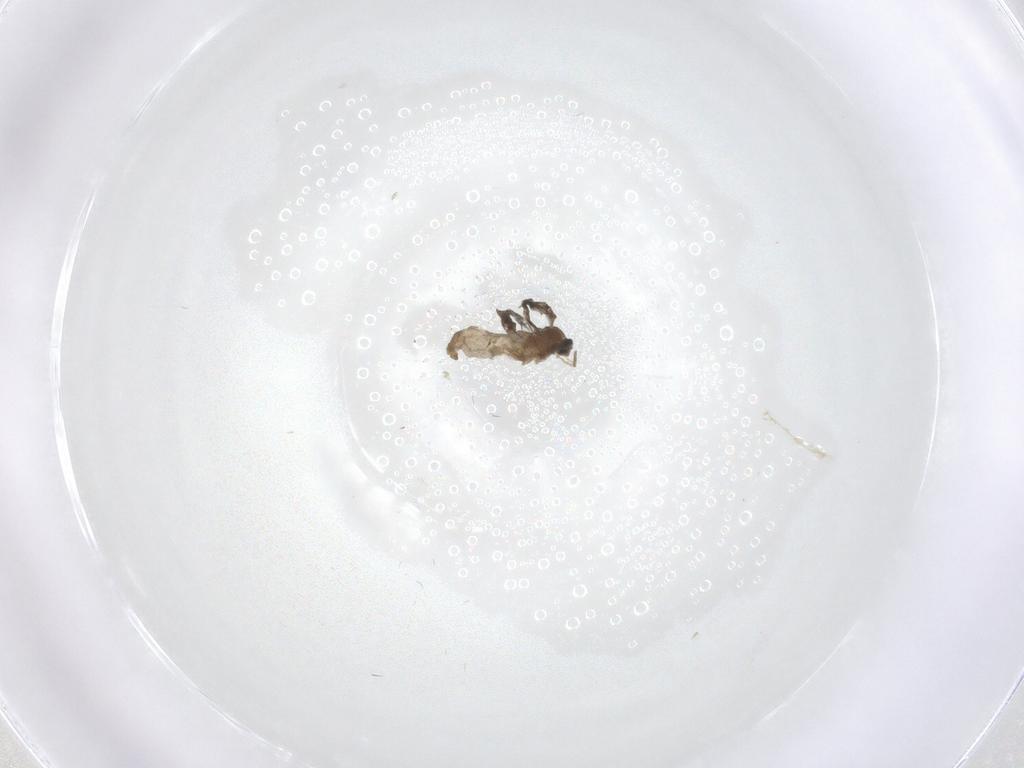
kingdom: Animalia
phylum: Arthropoda
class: Insecta
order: Diptera
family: Cecidomyiidae
